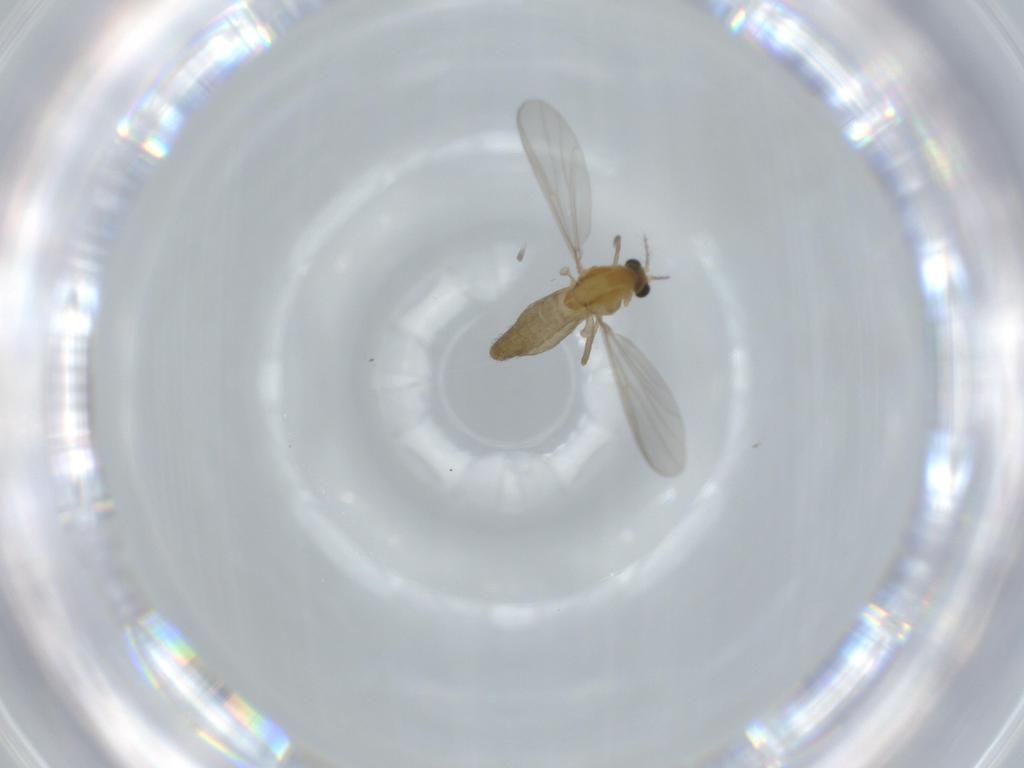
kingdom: Animalia
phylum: Arthropoda
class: Insecta
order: Diptera
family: Chironomidae
